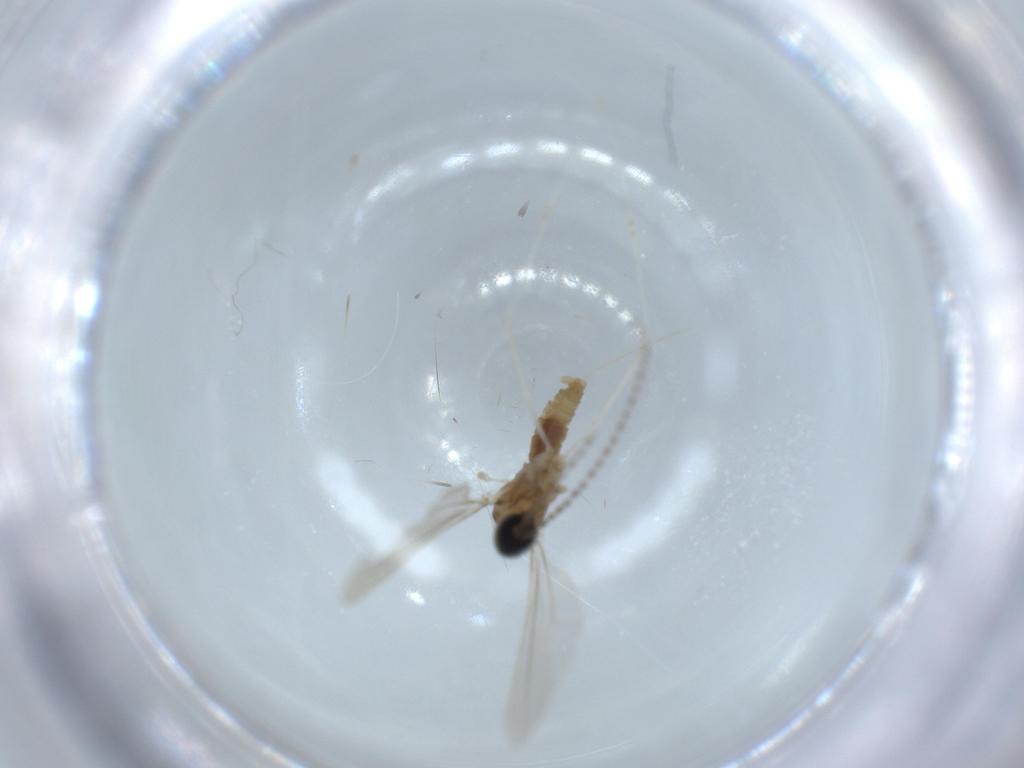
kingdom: Animalia
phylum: Arthropoda
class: Insecta
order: Diptera
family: Cecidomyiidae
